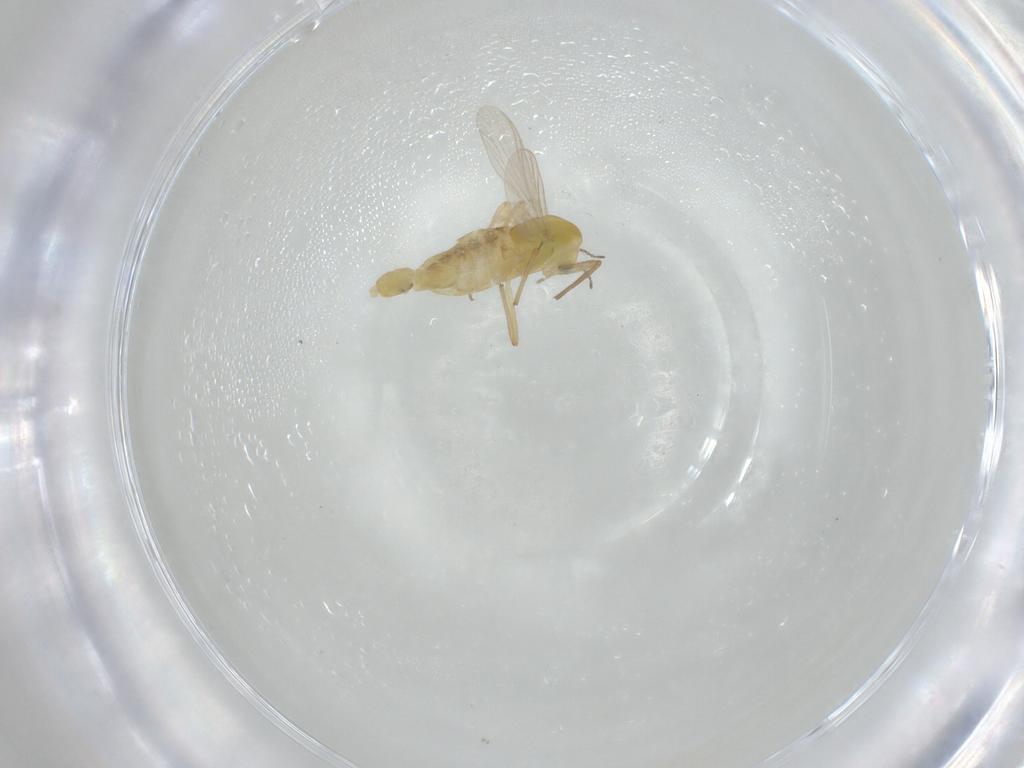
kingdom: Animalia
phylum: Arthropoda
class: Insecta
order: Diptera
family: Chironomidae
